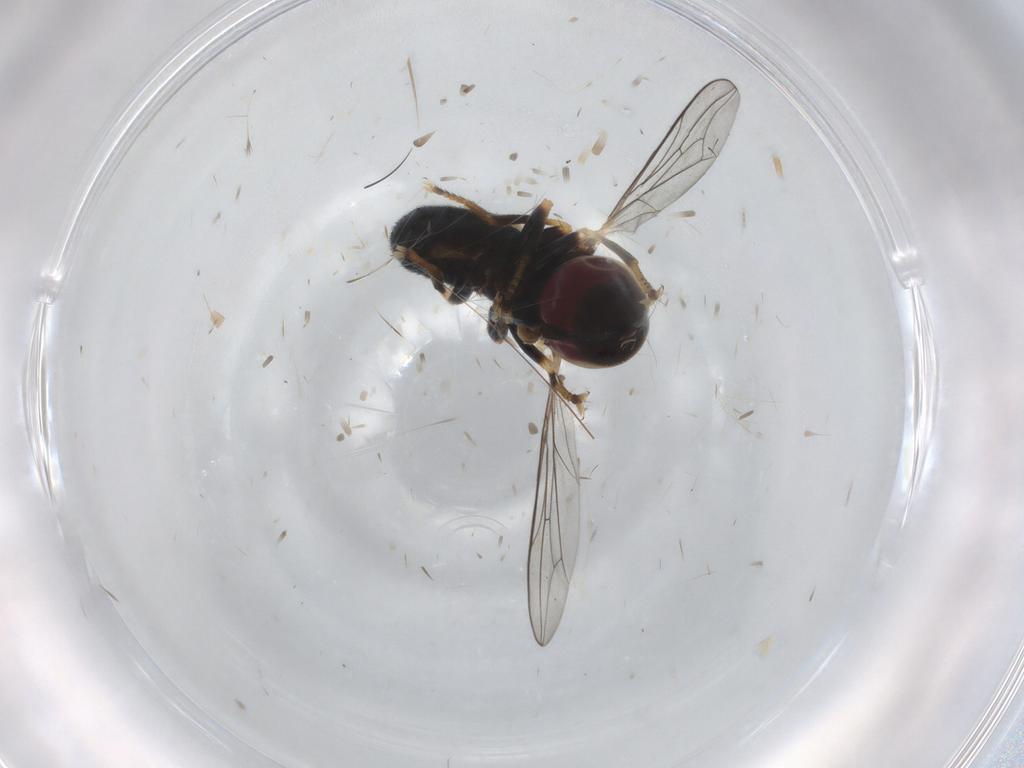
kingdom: Animalia
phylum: Arthropoda
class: Insecta
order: Diptera
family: Pipunculidae
